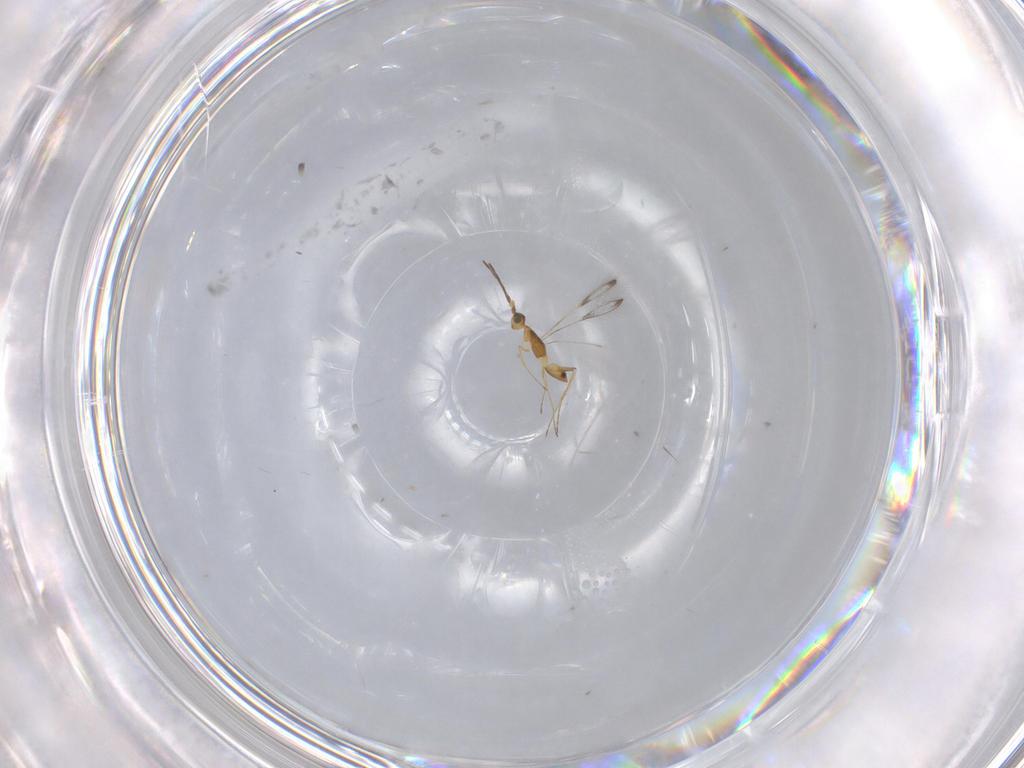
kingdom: Animalia
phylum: Arthropoda
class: Insecta
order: Hymenoptera
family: Mymaridae
